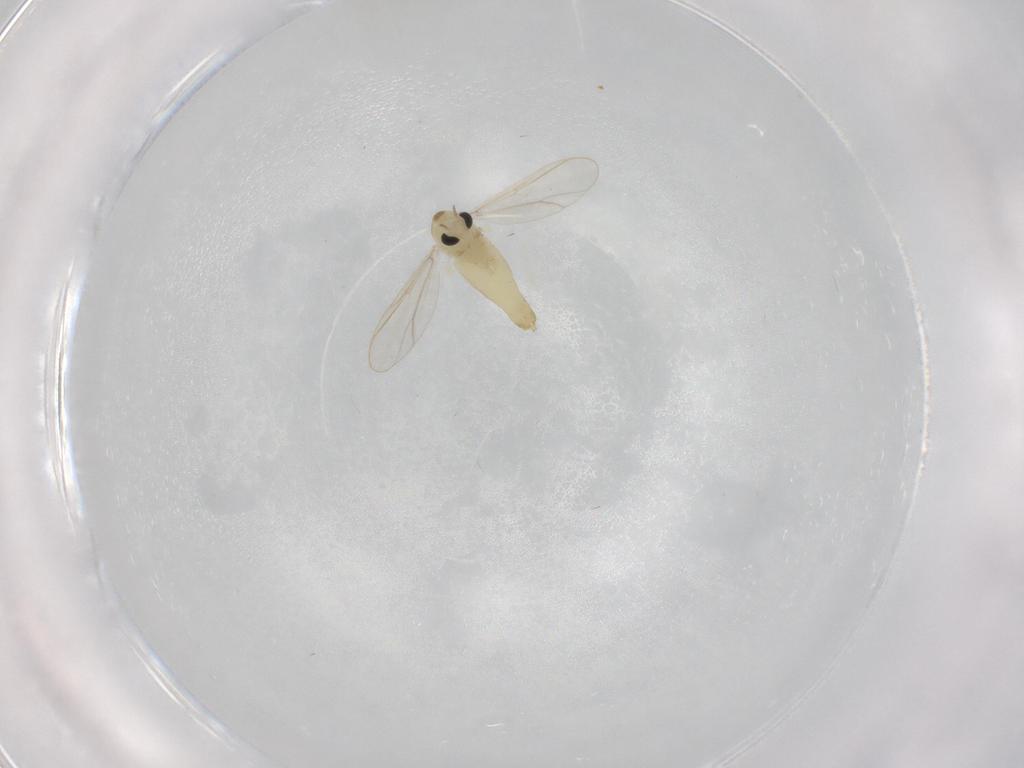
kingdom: Animalia
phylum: Arthropoda
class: Insecta
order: Diptera
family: Chironomidae
